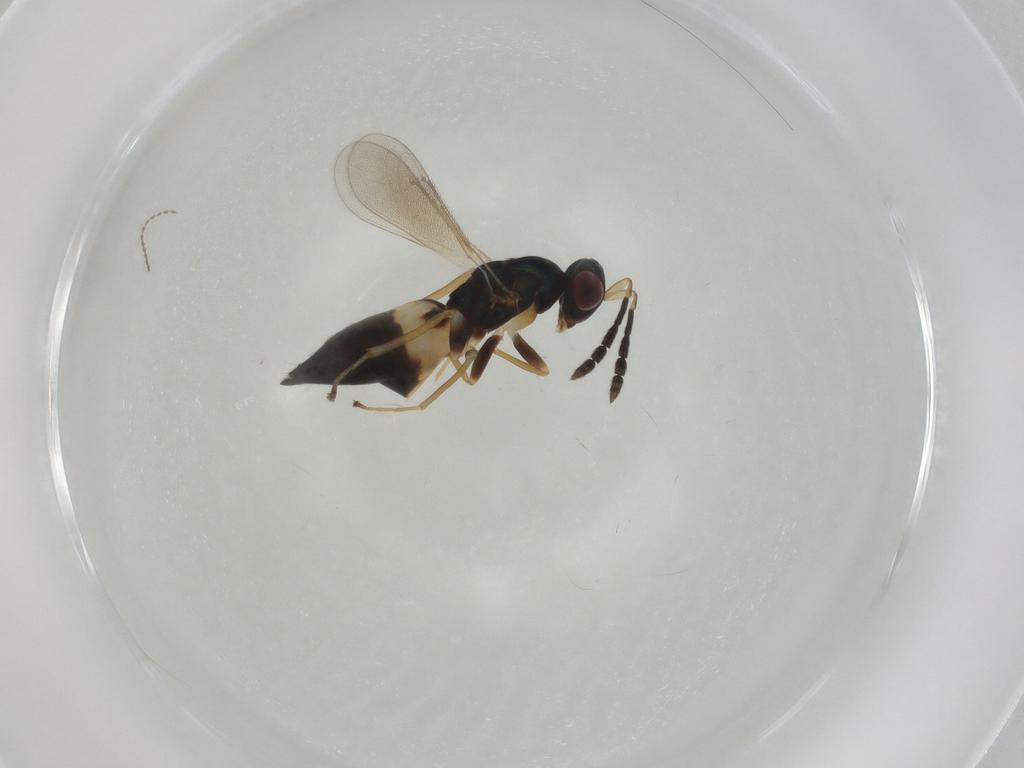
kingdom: Animalia
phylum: Arthropoda
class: Insecta
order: Hymenoptera
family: Eulophidae
